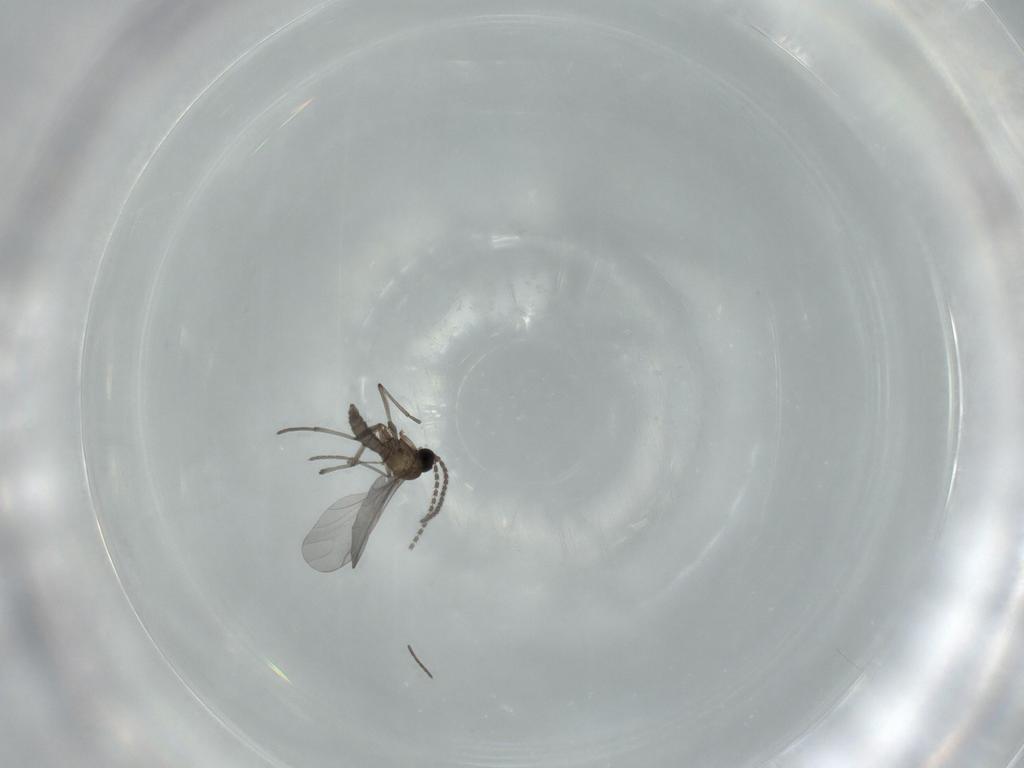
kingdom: Animalia
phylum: Arthropoda
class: Insecta
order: Diptera
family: Sciaridae
